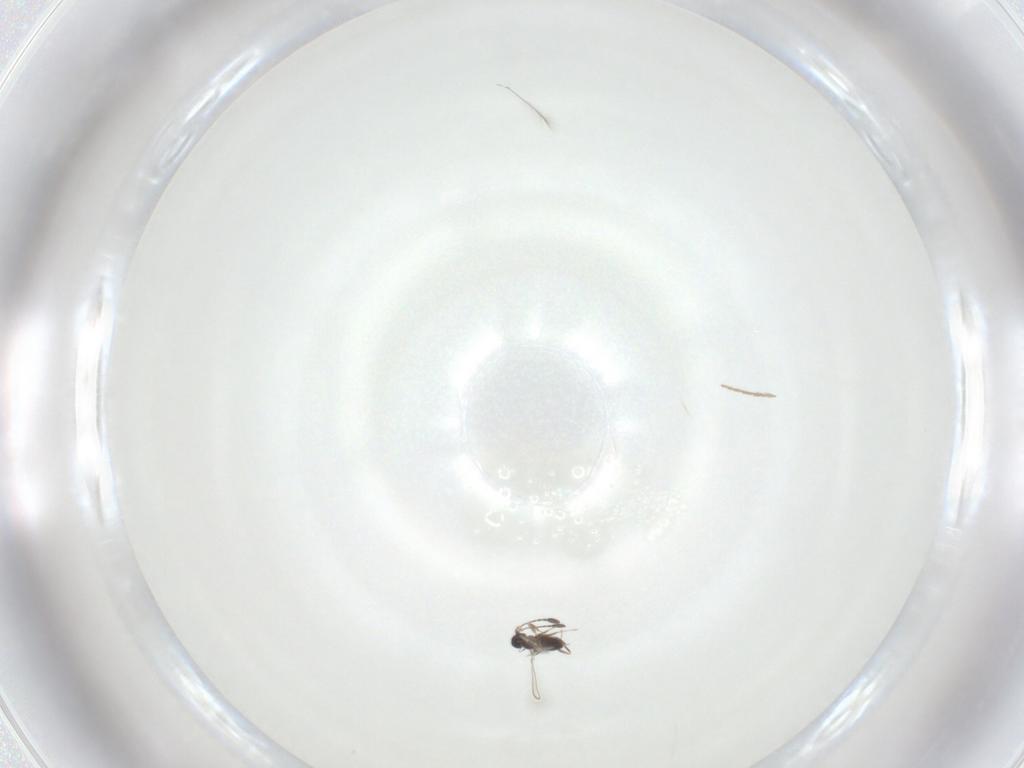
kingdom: Animalia
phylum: Arthropoda
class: Insecta
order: Hymenoptera
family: Mymaridae
